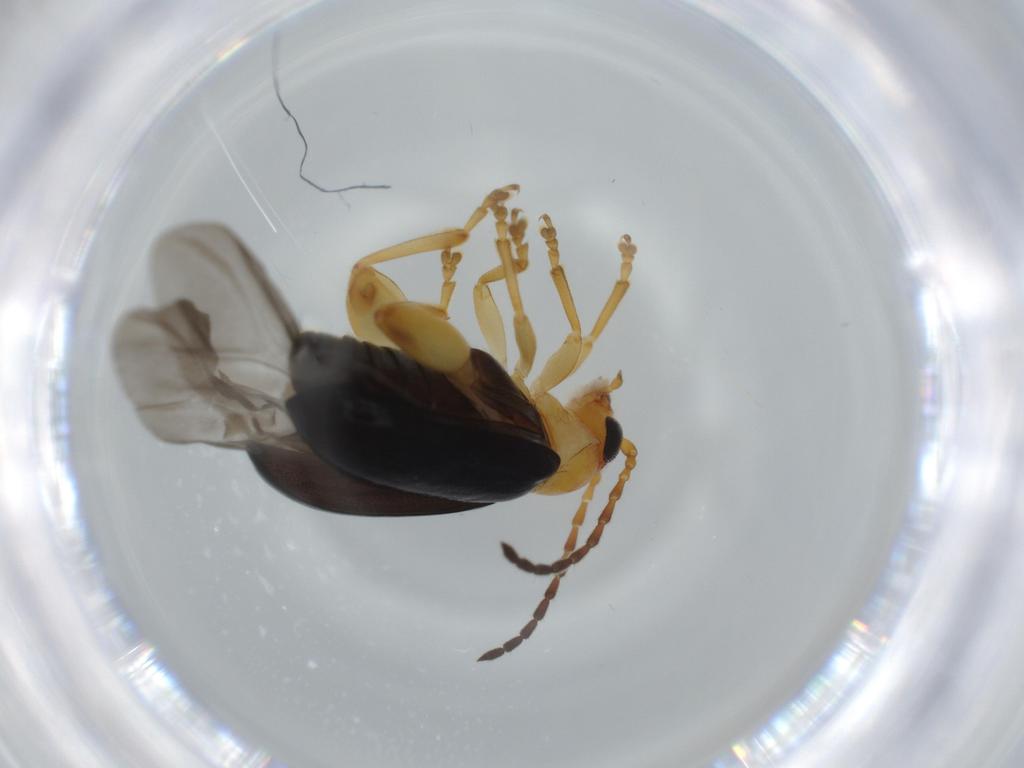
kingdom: Animalia
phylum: Arthropoda
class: Insecta
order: Coleoptera
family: Chrysomelidae
